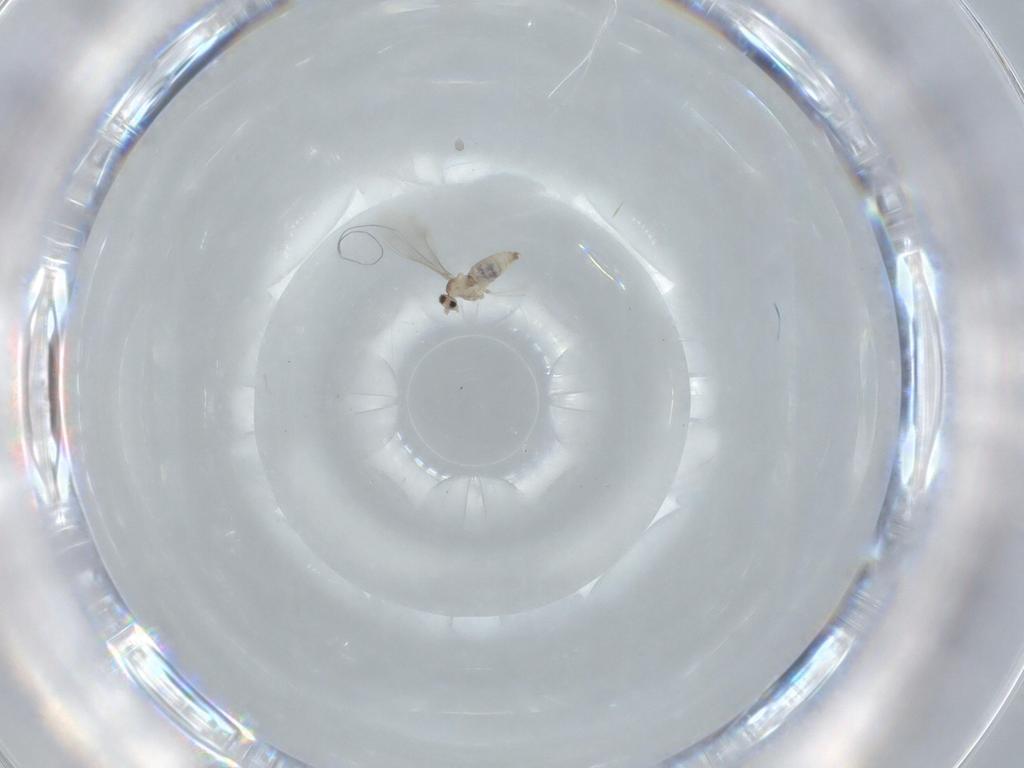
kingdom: Animalia
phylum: Arthropoda
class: Insecta
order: Diptera
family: Cecidomyiidae
